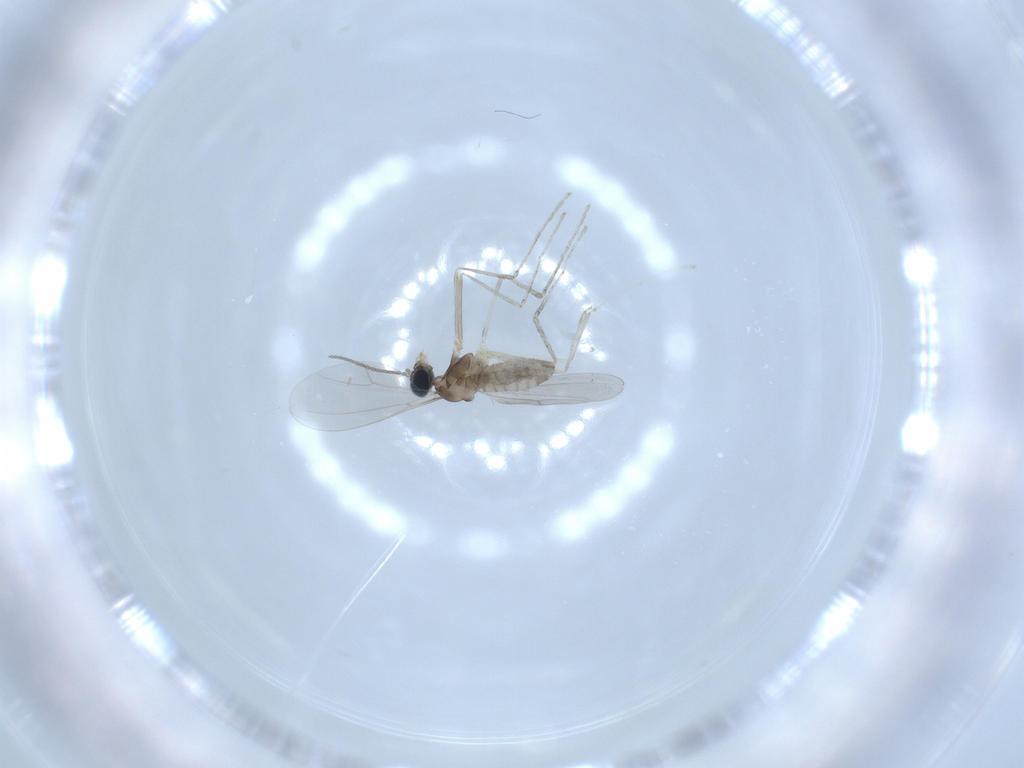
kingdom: Animalia
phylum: Arthropoda
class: Insecta
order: Diptera
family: Cecidomyiidae
